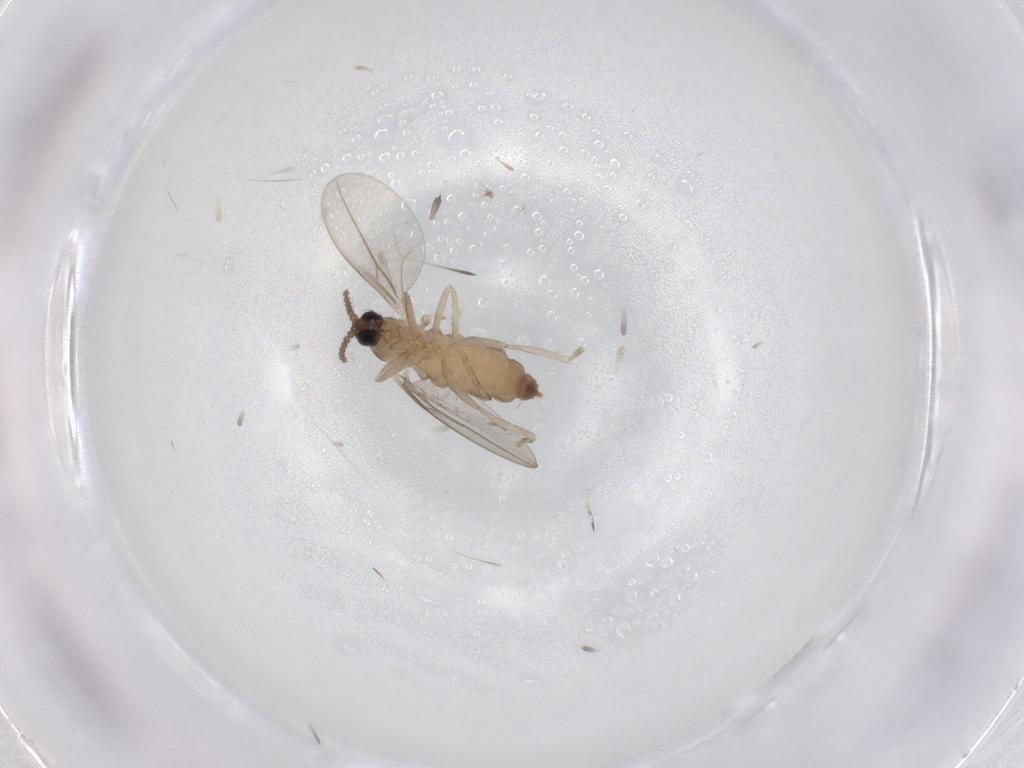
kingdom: Animalia
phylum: Arthropoda
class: Insecta
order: Diptera
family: Cecidomyiidae
